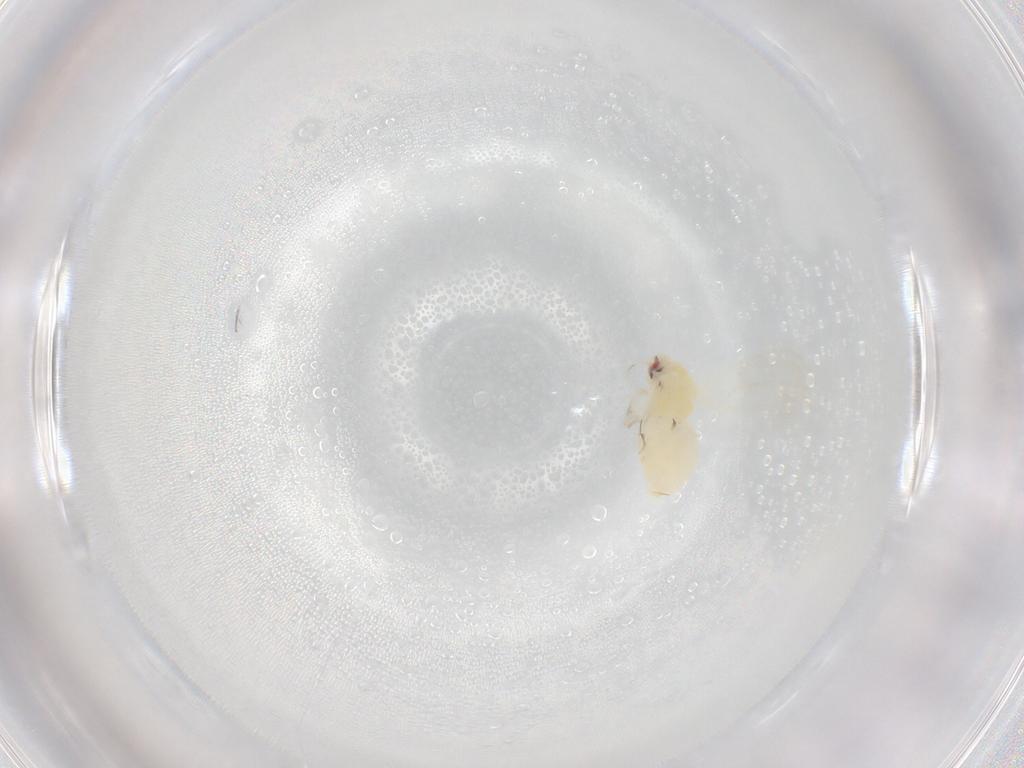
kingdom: Animalia
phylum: Arthropoda
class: Insecta
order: Hemiptera
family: Aleyrodidae
